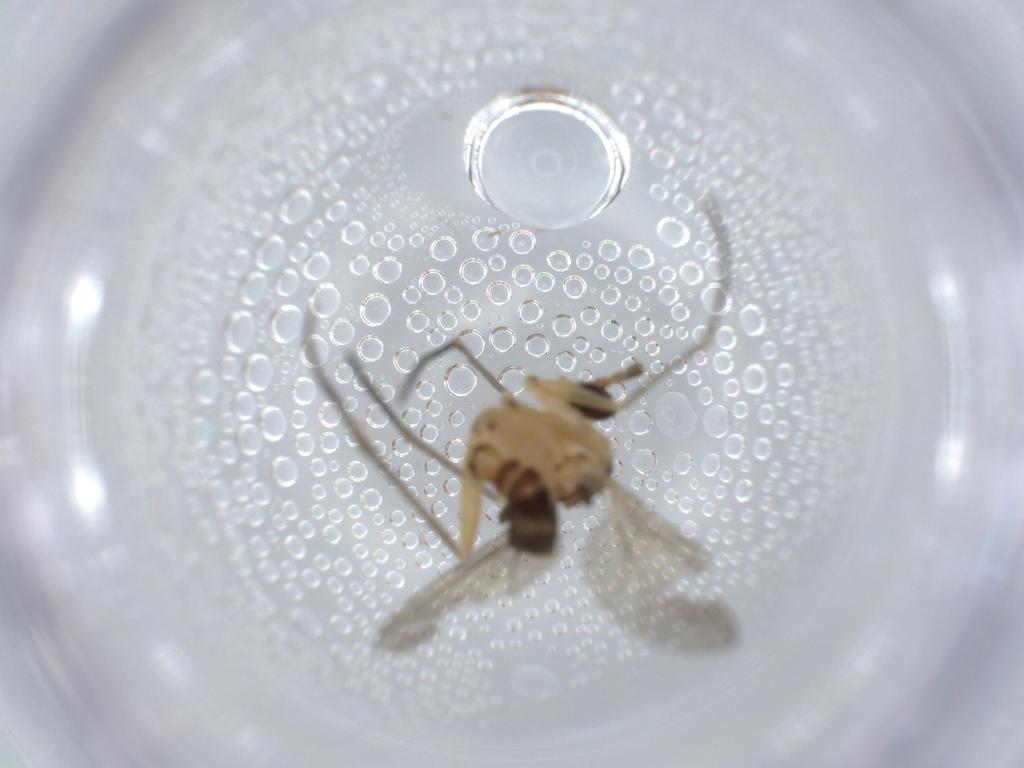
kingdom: Animalia
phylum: Arthropoda
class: Insecta
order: Diptera
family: Sciaridae
